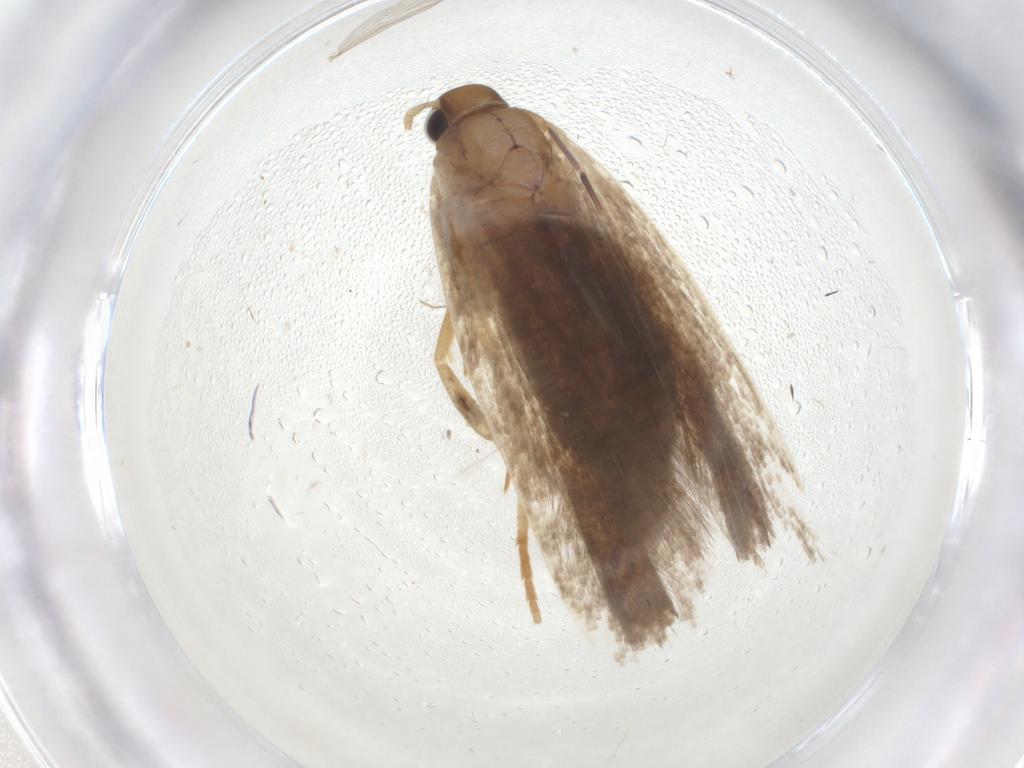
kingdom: Animalia
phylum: Arthropoda
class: Insecta
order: Lepidoptera
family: Gelechiidae
